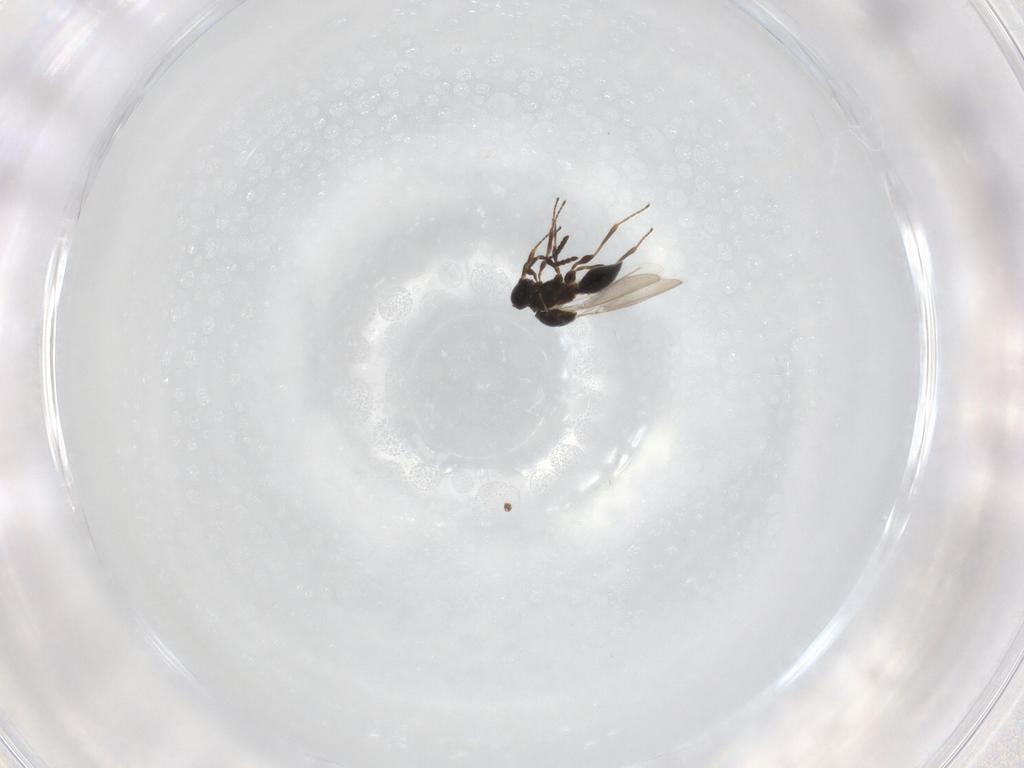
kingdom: Animalia
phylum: Arthropoda
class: Insecta
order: Hymenoptera
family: Platygastridae
